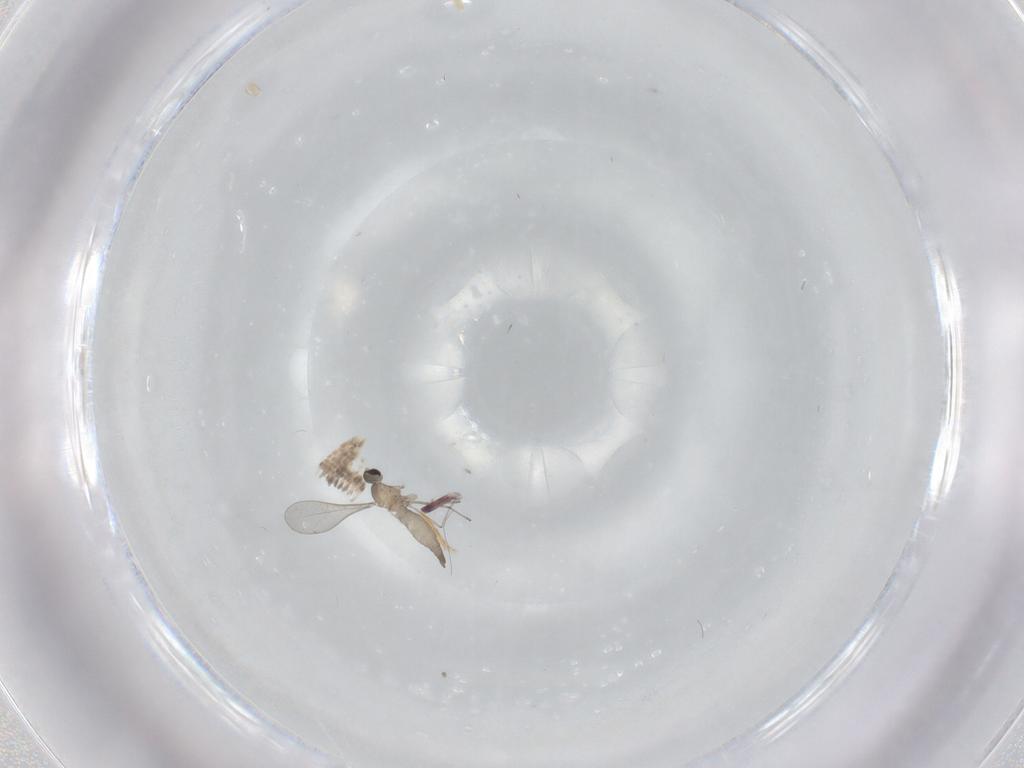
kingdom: Animalia
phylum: Arthropoda
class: Insecta
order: Diptera
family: Cecidomyiidae
